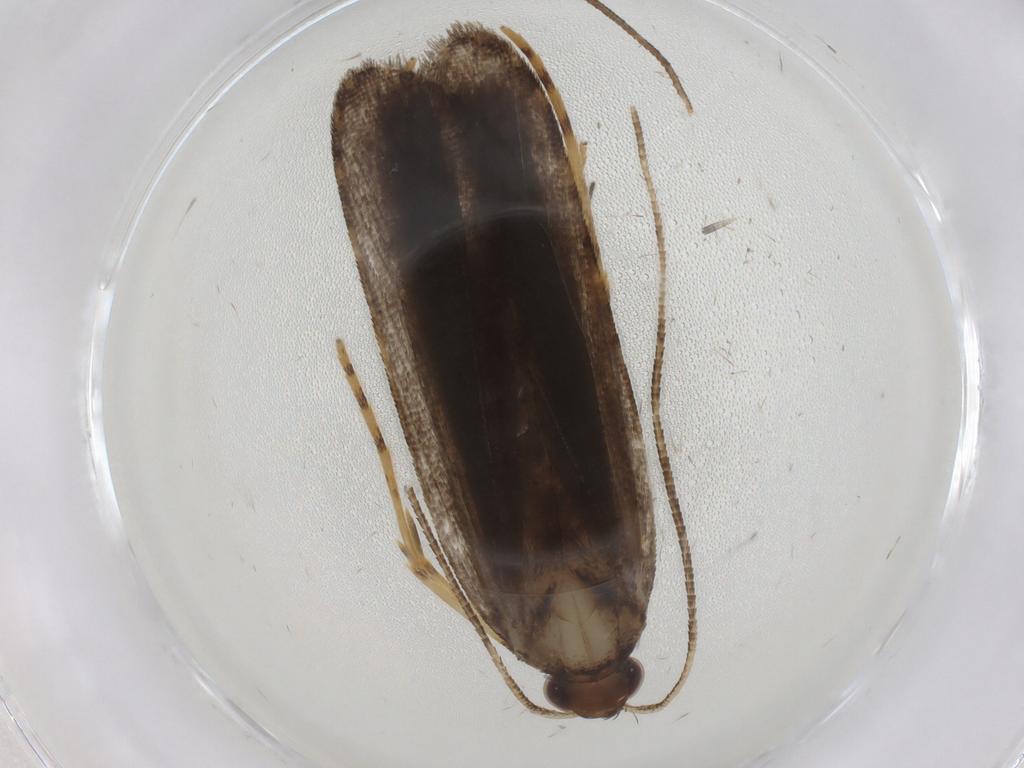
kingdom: Animalia
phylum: Arthropoda
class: Insecta
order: Lepidoptera
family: Cosmopterigidae
